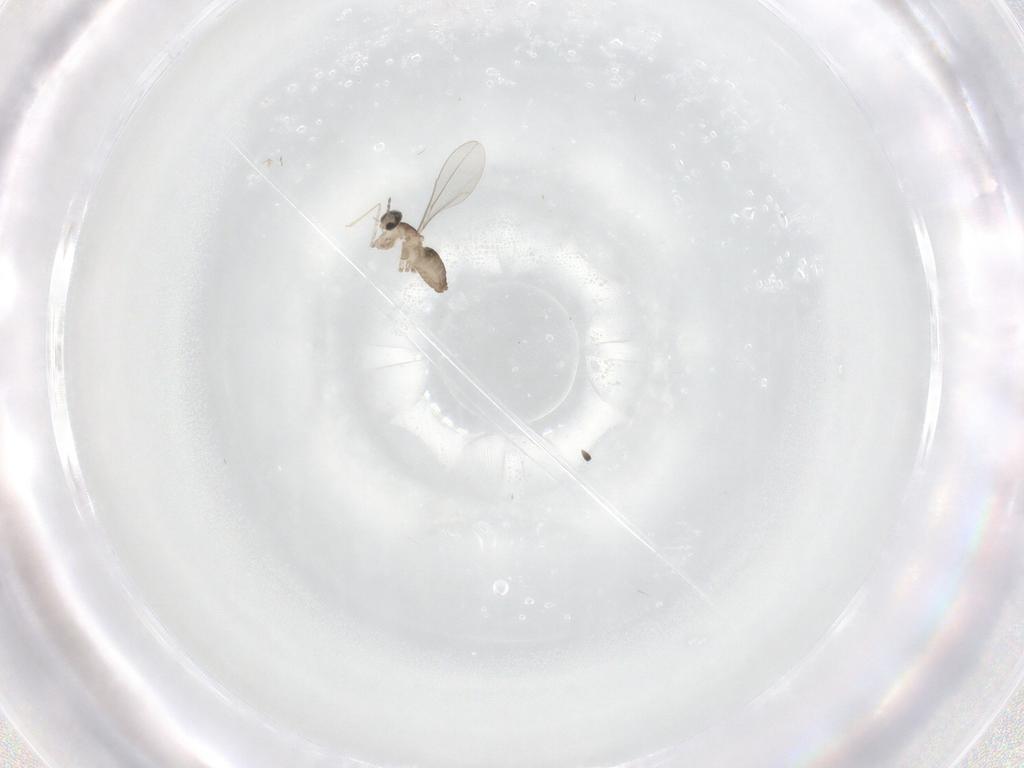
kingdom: Animalia
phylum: Arthropoda
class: Insecta
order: Diptera
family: Cecidomyiidae
